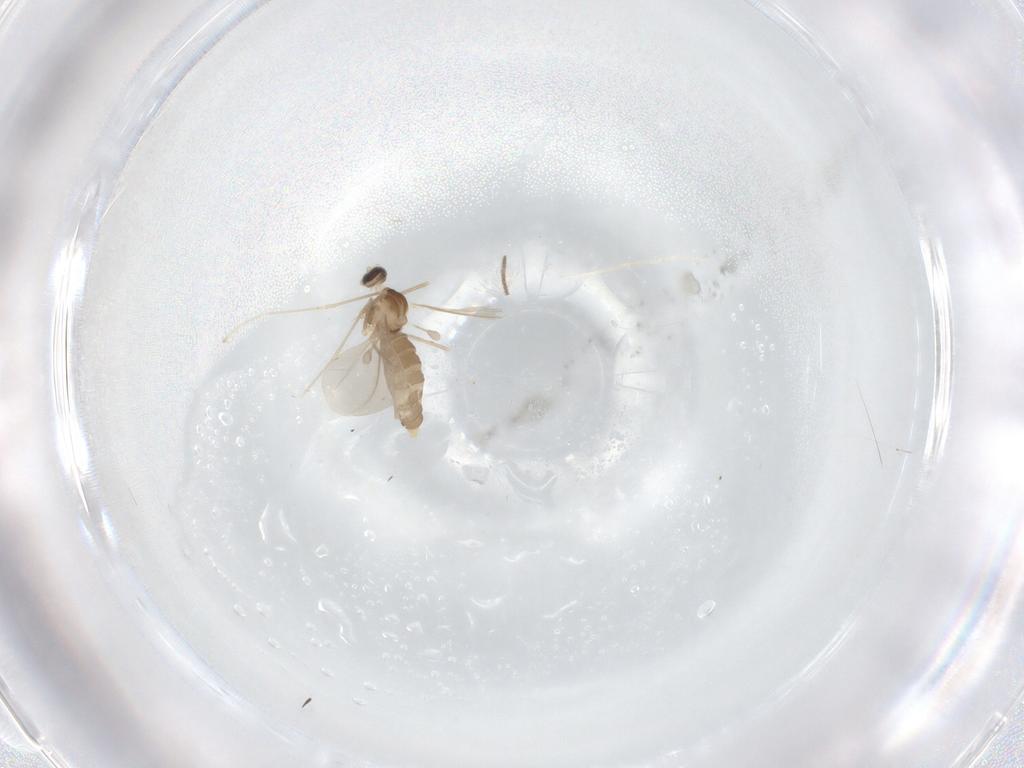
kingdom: Animalia
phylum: Arthropoda
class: Insecta
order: Diptera
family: Cecidomyiidae
